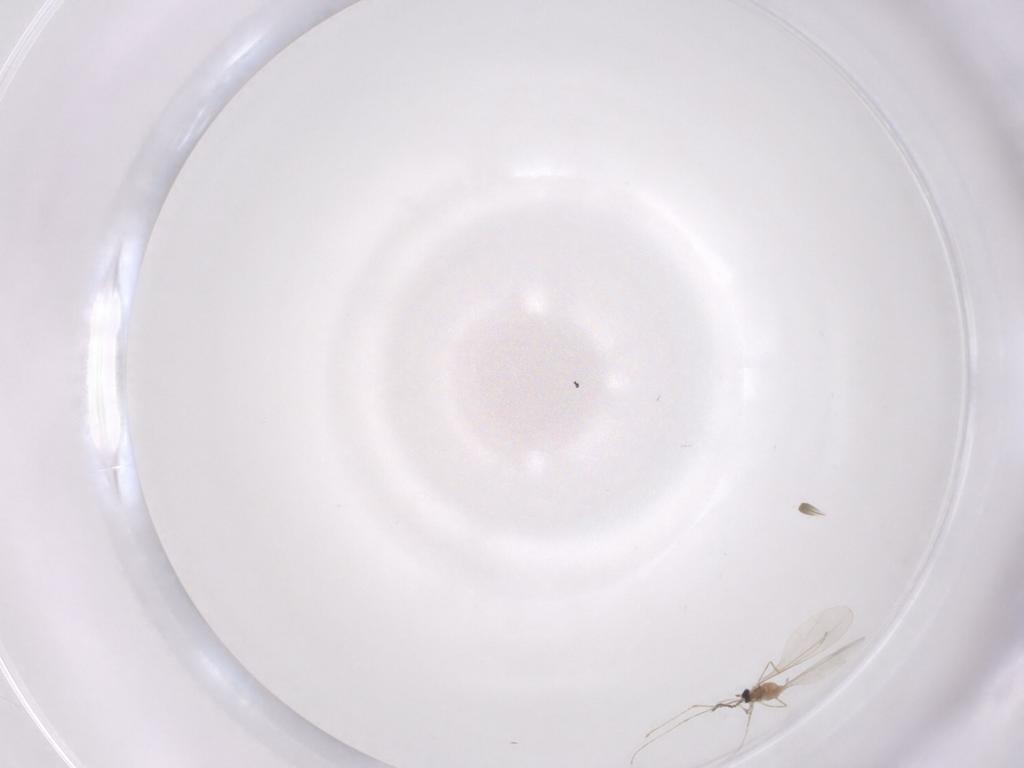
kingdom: Animalia
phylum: Arthropoda
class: Insecta
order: Diptera
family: Cecidomyiidae
